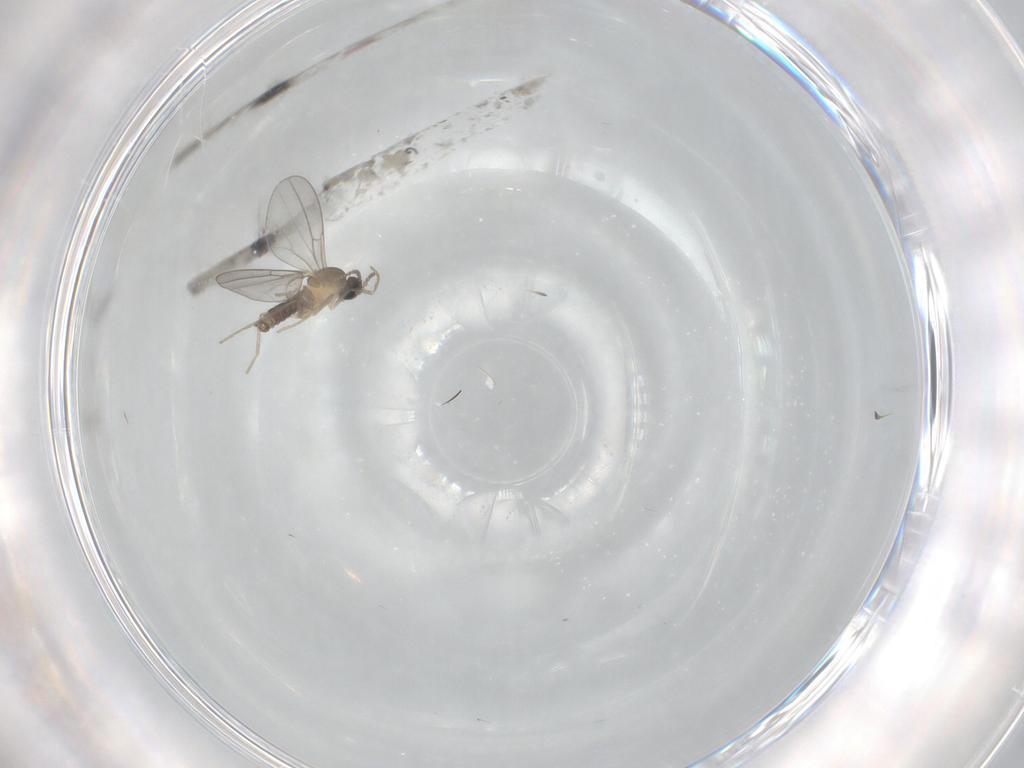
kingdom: Animalia
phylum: Arthropoda
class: Insecta
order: Diptera
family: Cecidomyiidae
